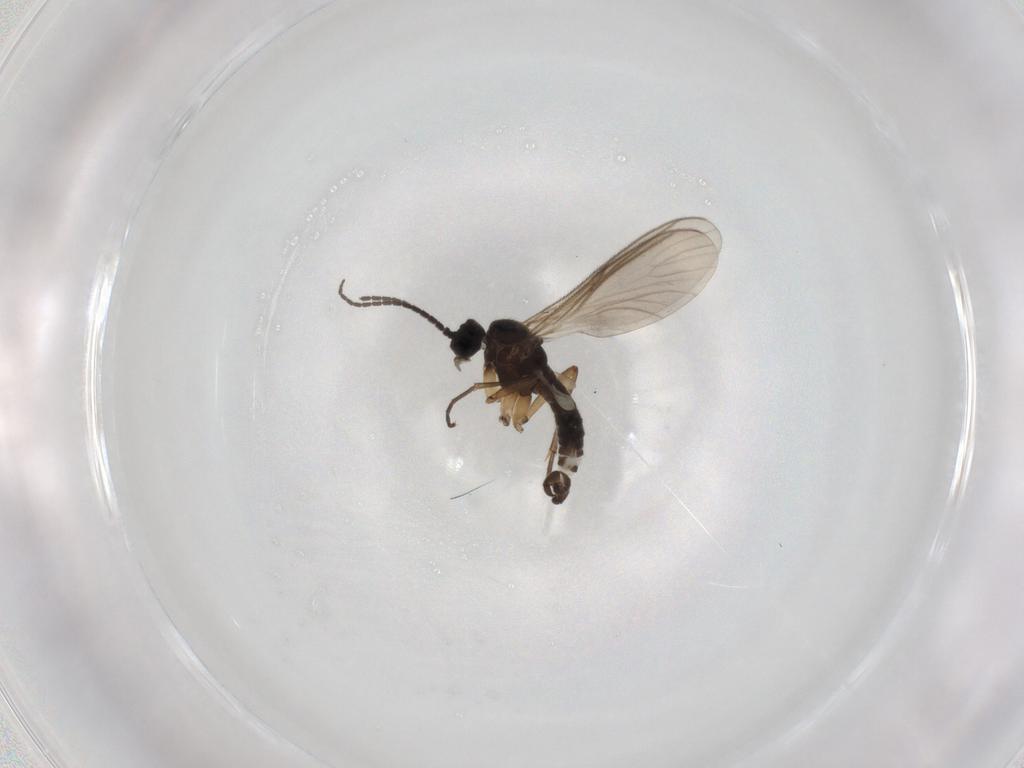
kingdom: Animalia
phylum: Arthropoda
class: Insecta
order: Diptera
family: Sciaridae
